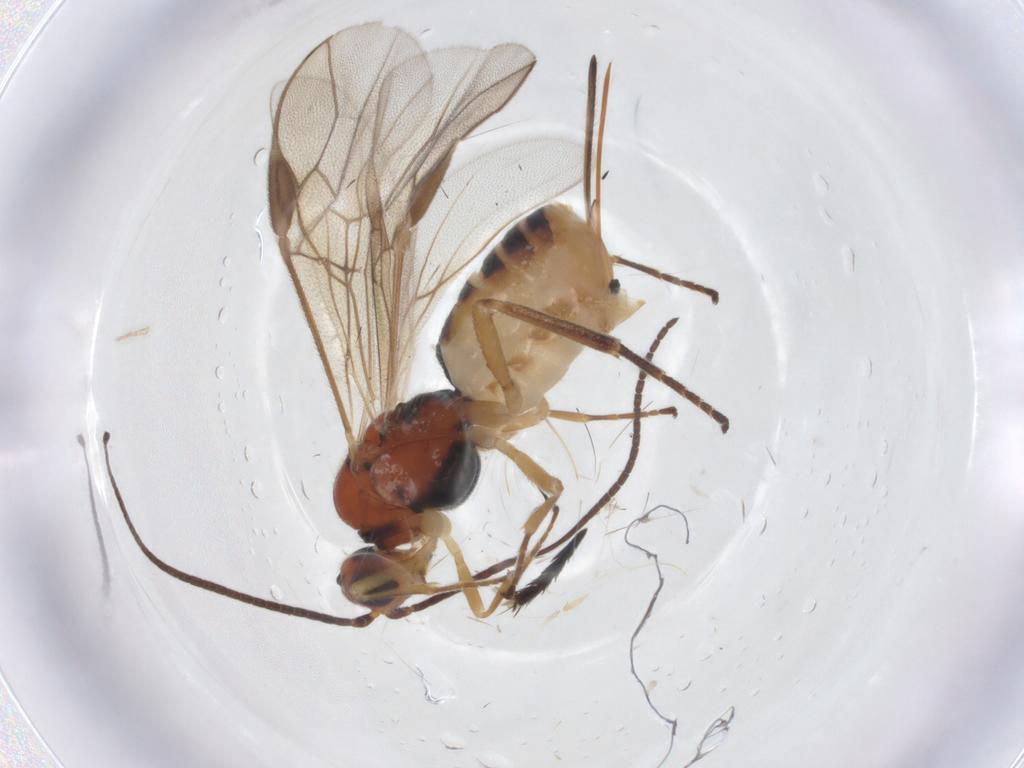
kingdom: Animalia
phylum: Arthropoda
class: Insecta
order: Hymenoptera
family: Braconidae
